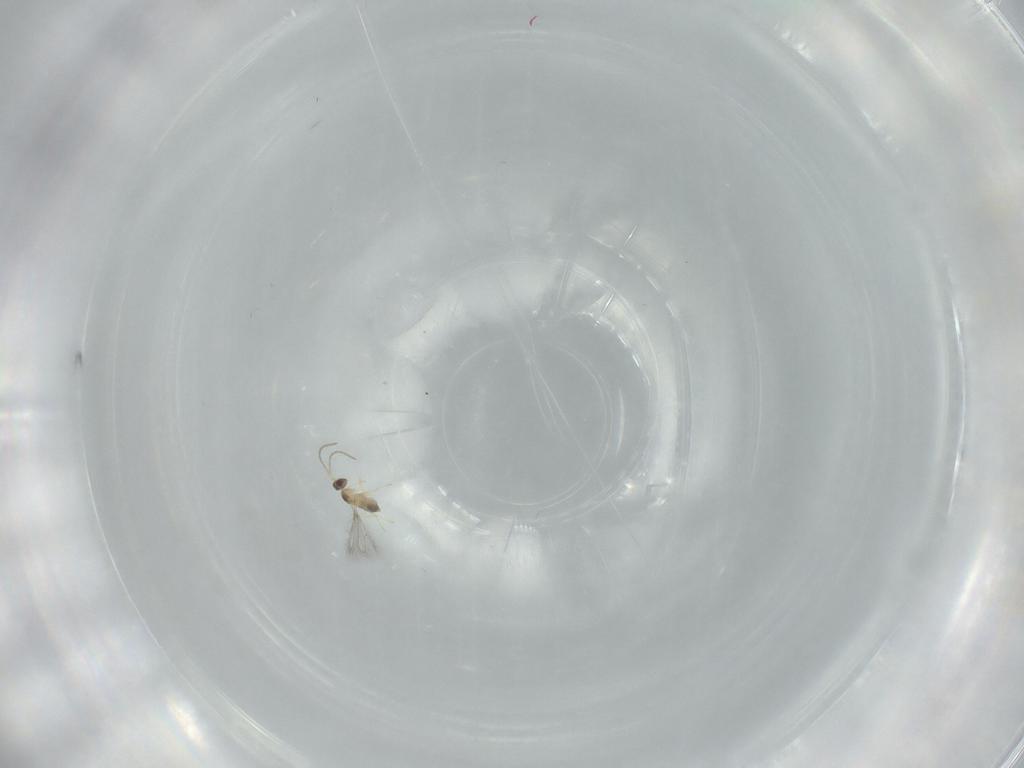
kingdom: Animalia
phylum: Arthropoda
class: Insecta
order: Hymenoptera
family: Mymaridae
